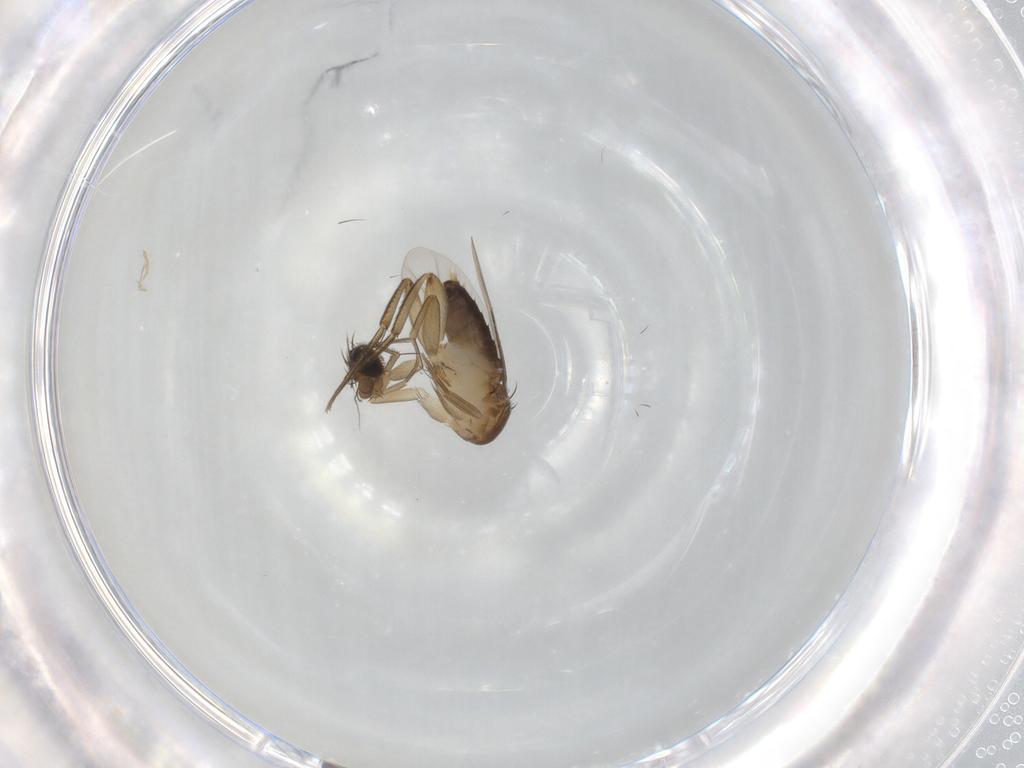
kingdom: Animalia
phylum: Arthropoda
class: Insecta
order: Diptera
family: Phoridae
